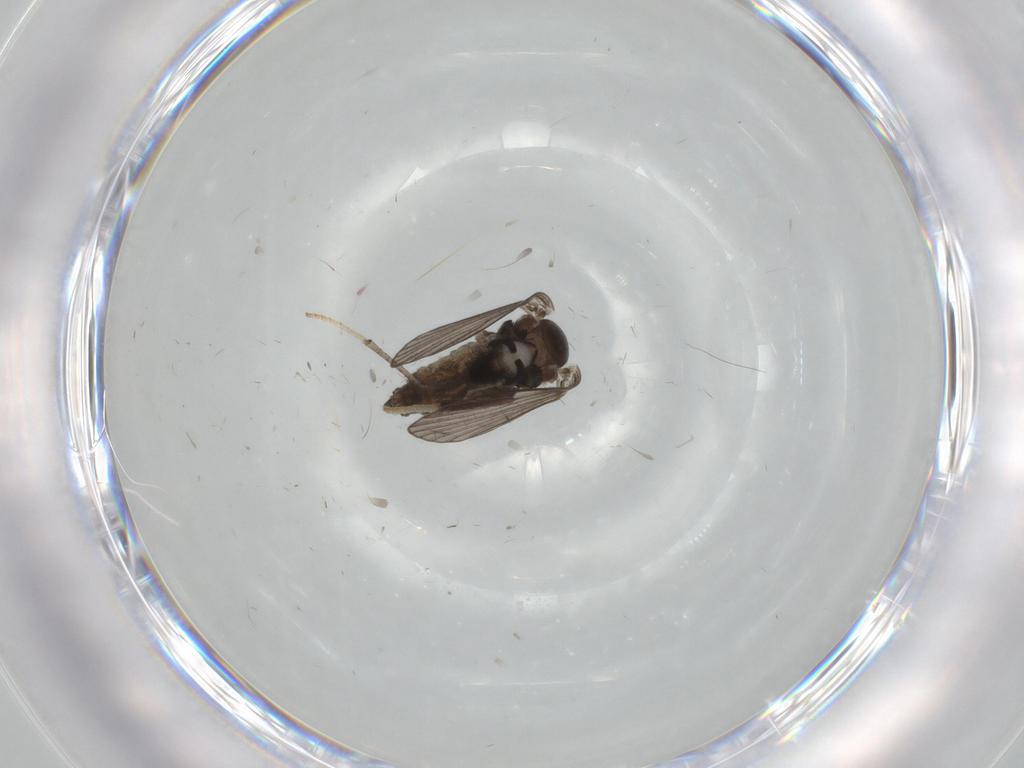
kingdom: Animalia
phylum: Arthropoda
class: Insecta
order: Diptera
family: Psychodidae
